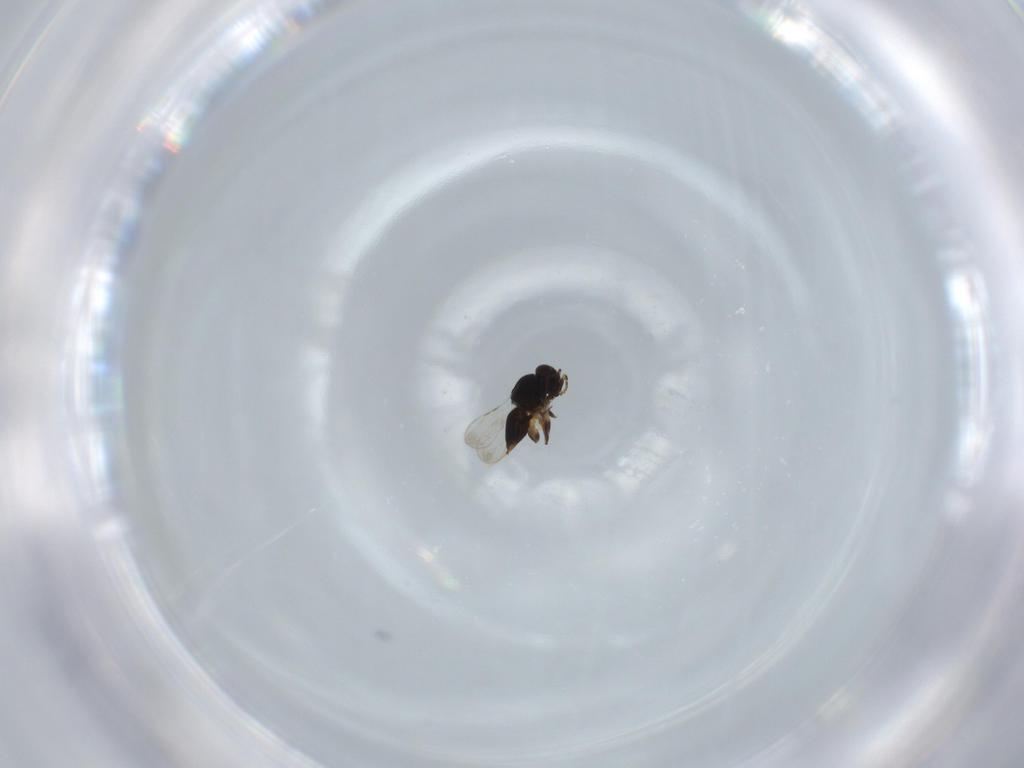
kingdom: Animalia
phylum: Arthropoda
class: Insecta
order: Hymenoptera
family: Ceraphronidae
